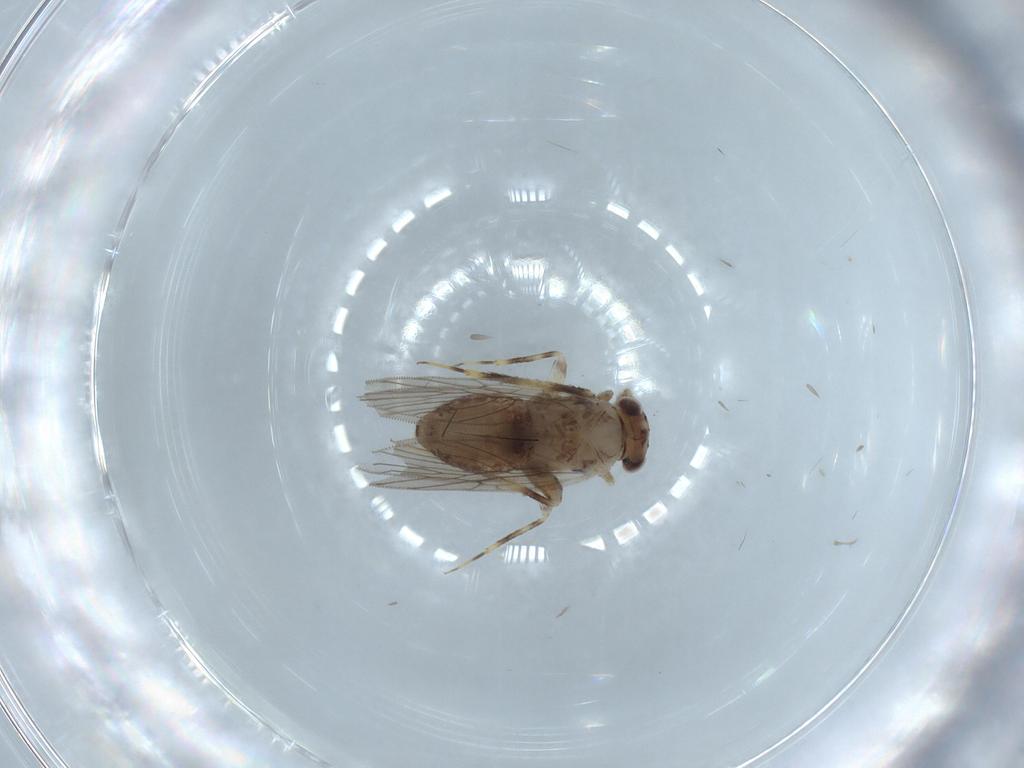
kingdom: Animalia
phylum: Arthropoda
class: Insecta
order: Psocodea
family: Lepidopsocidae
